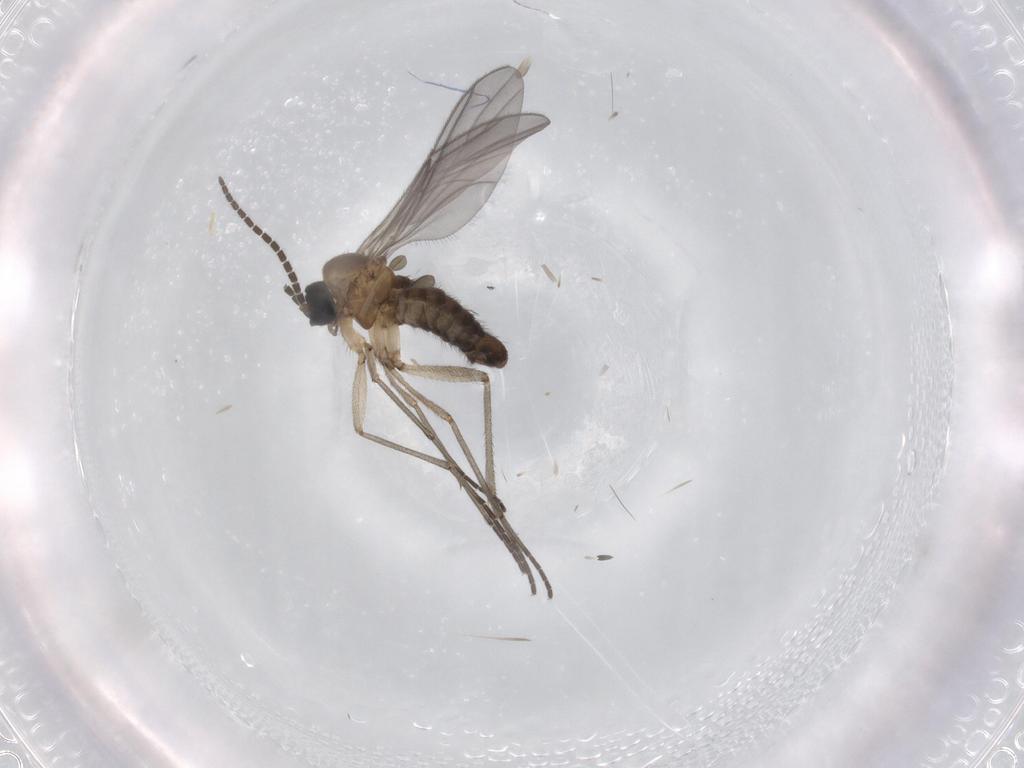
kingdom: Animalia
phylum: Arthropoda
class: Insecta
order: Diptera
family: Sciaridae
